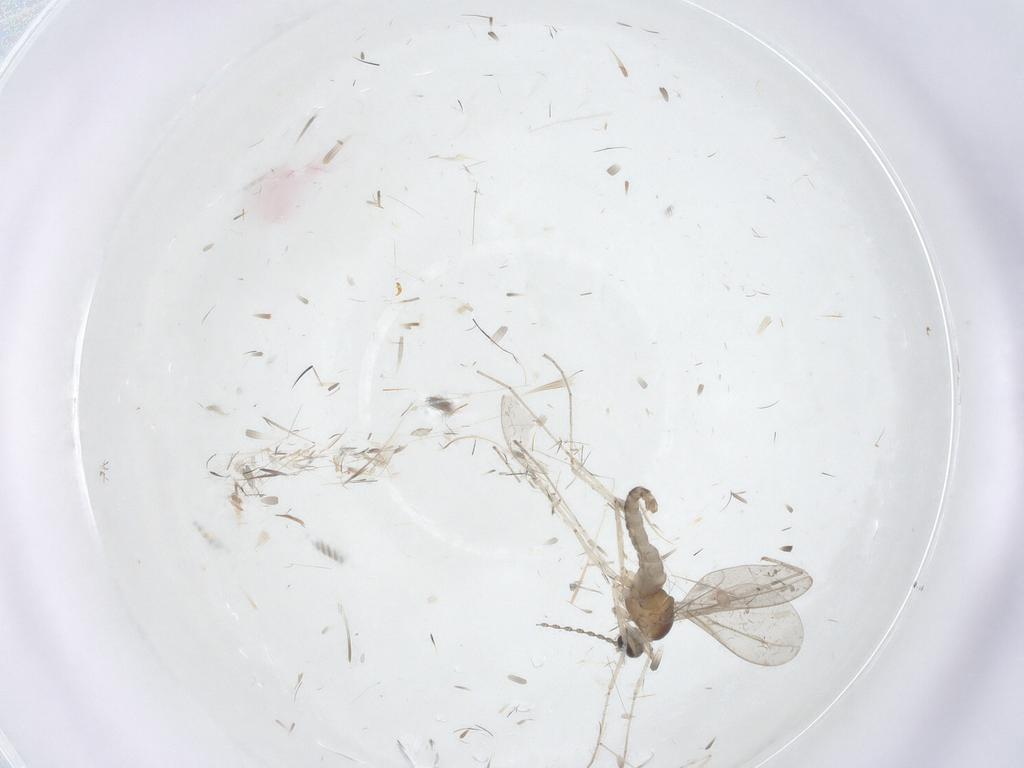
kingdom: Animalia
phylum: Arthropoda
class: Insecta
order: Diptera
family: Cecidomyiidae
